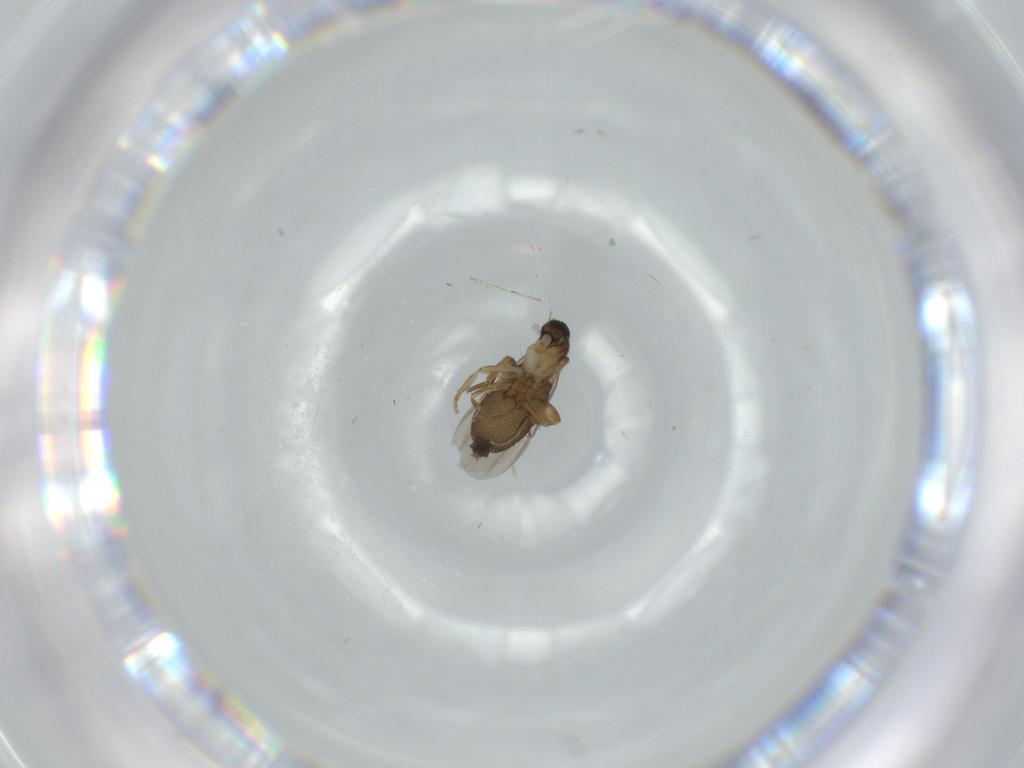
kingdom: Animalia
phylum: Arthropoda
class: Insecta
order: Diptera
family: Phoridae
